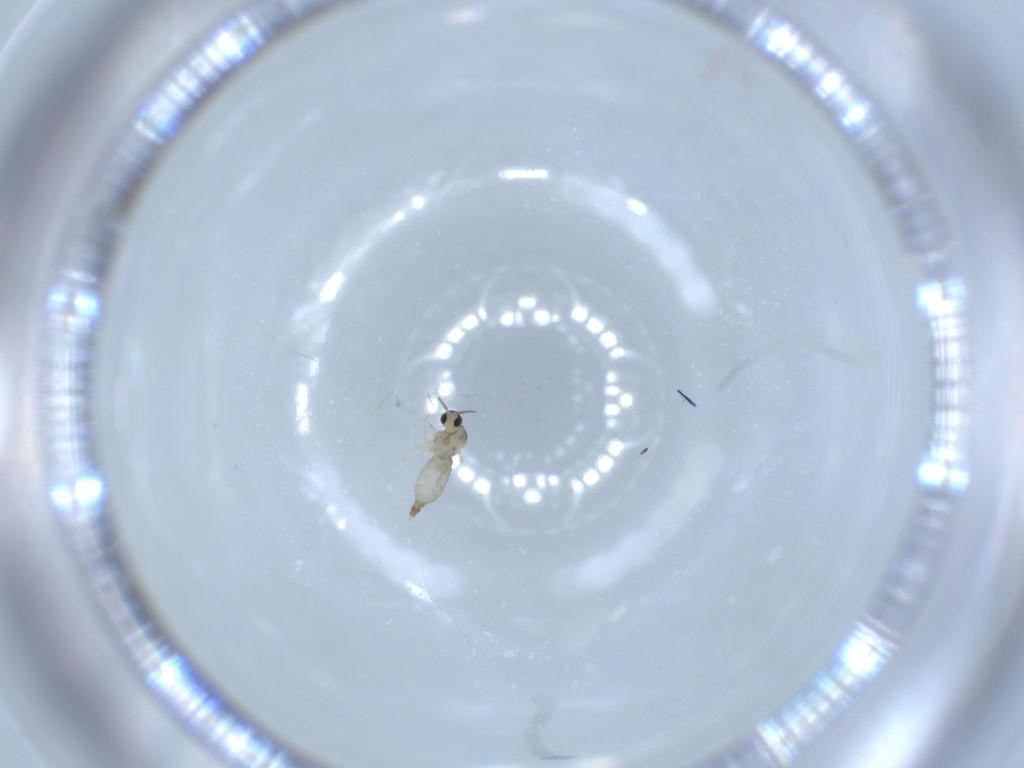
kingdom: Animalia
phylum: Arthropoda
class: Insecta
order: Diptera
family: Cecidomyiidae
